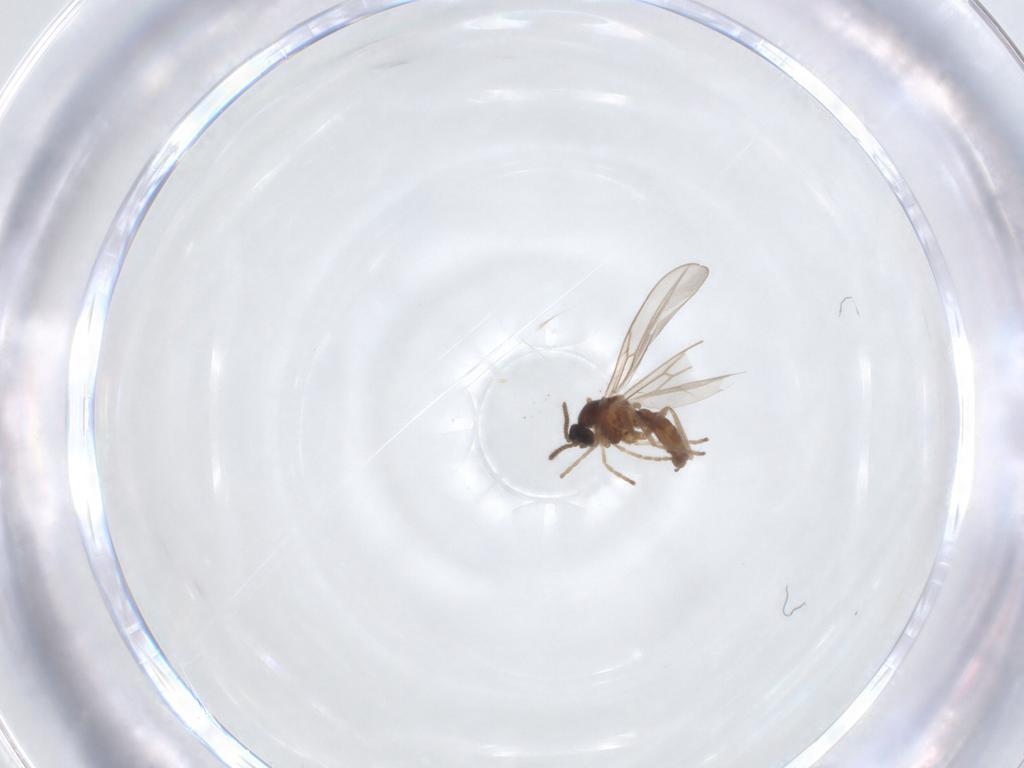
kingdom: Animalia
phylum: Arthropoda
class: Insecta
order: Diptera
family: Cecidomyiidae
